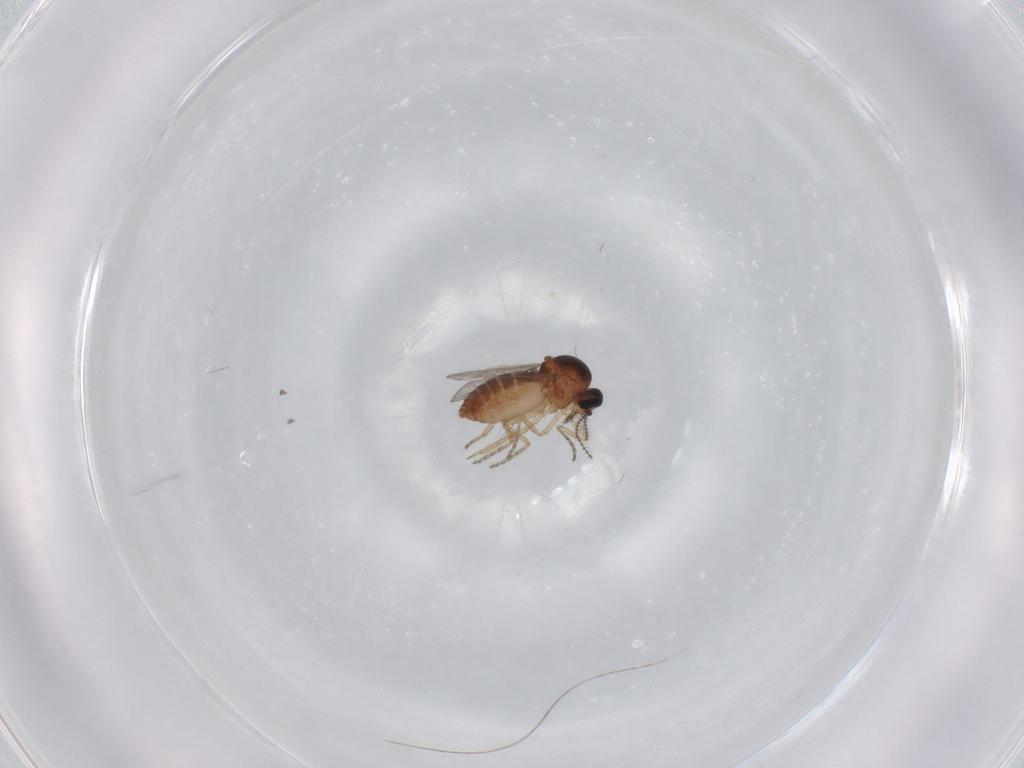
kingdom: Animalia
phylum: Arthropoda
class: Insecta
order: Diptera
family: Ceratopogonidae
